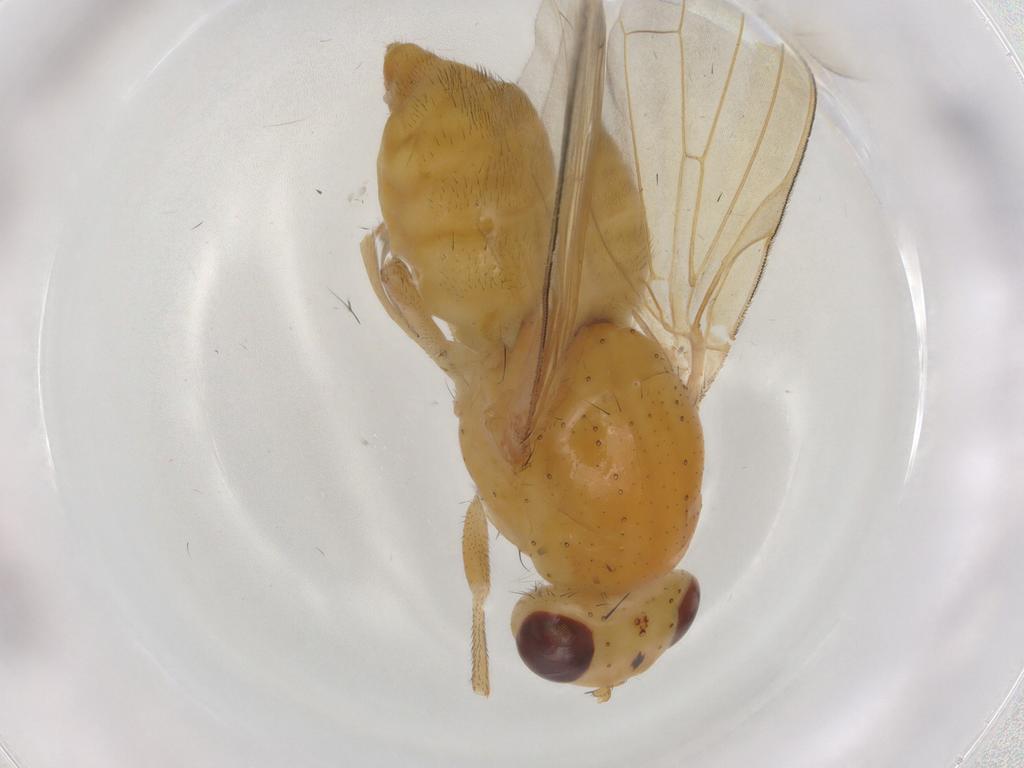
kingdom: Animalia
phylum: Arthropoda
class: Insecta
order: Diptera
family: Lauxaniidae
